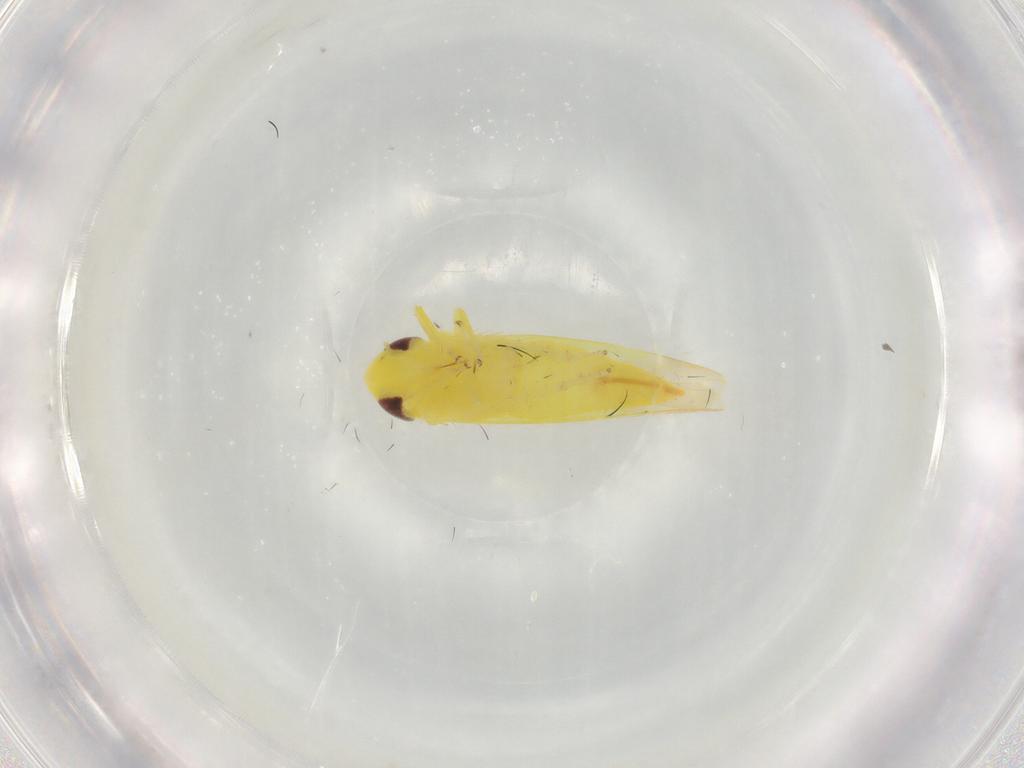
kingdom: Animalia
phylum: Arthropoda
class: Insecta
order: Hemiptera
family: Cicadellidae
